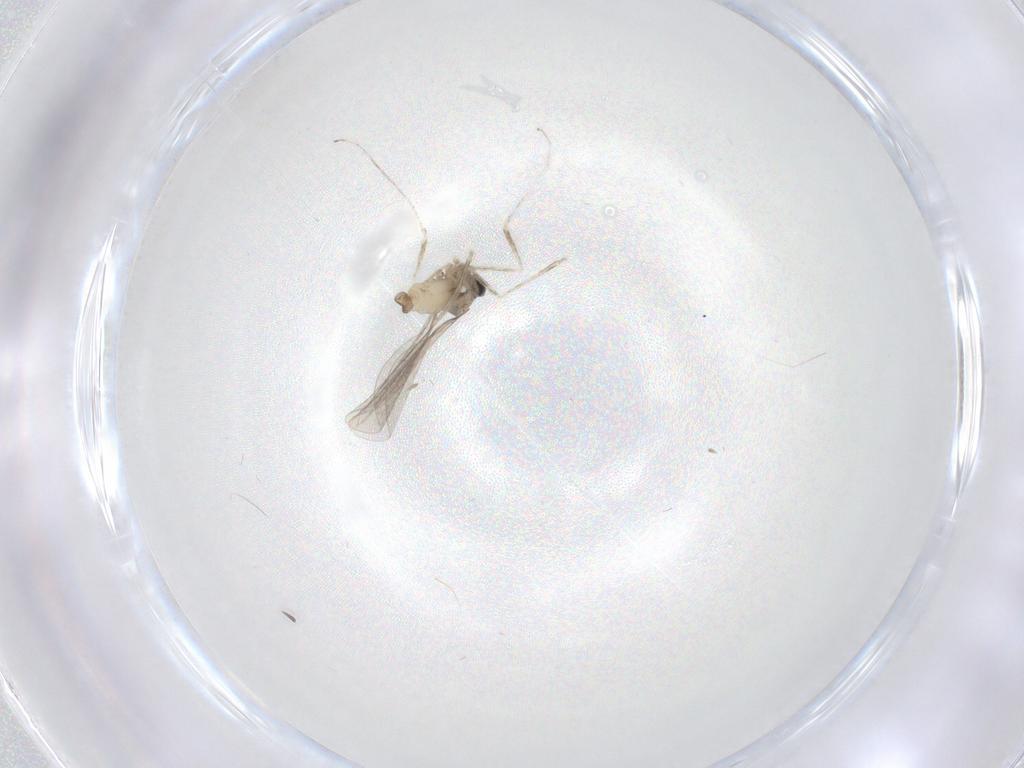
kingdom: Animalia
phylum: Arthropoda
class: Insecta
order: Diptera
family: Cecidomyiidae
